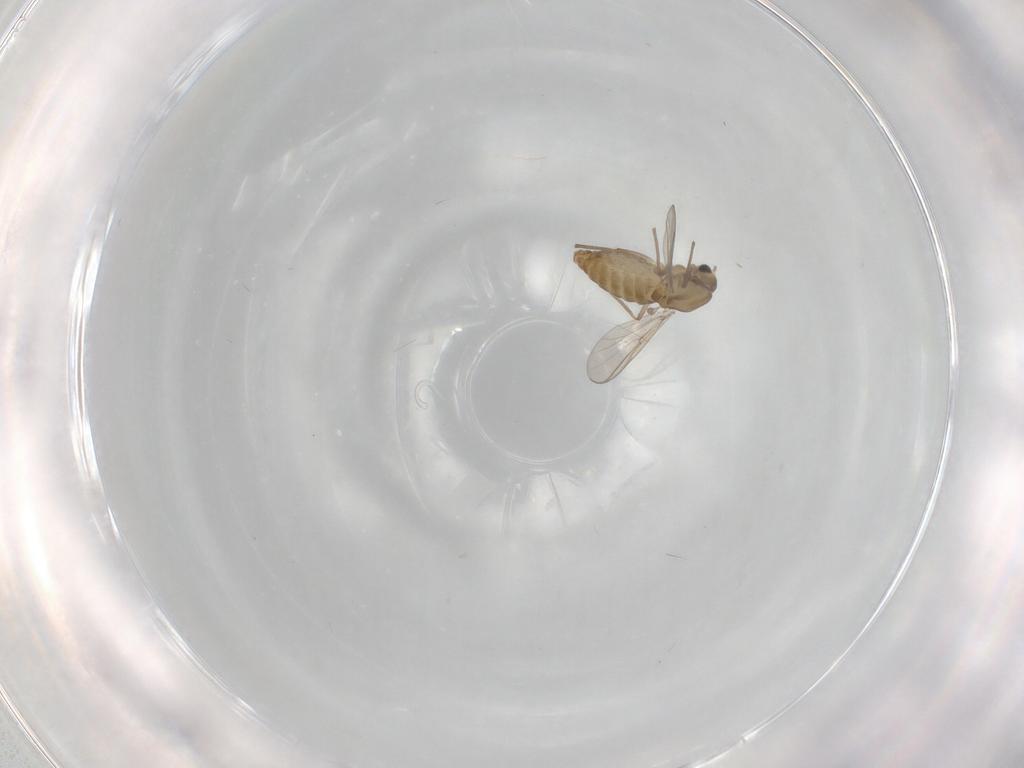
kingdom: Animalia
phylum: Arthropoda
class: Insecta
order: Diptera
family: Chironomidae
